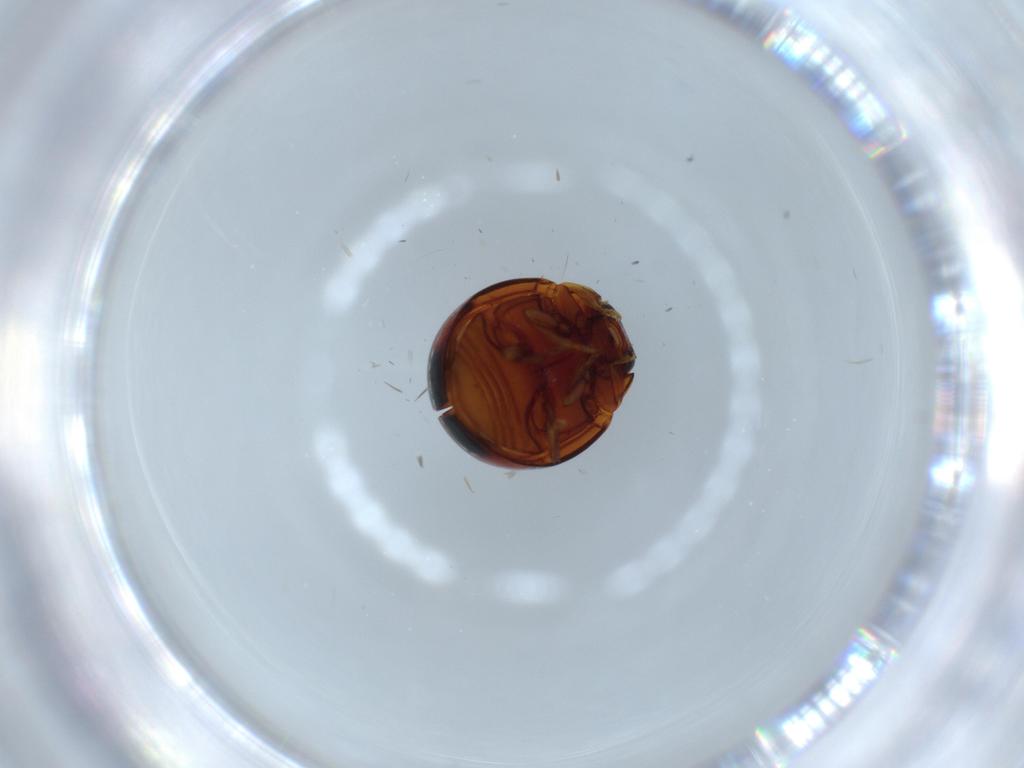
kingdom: Animalia
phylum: Arthropoda
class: Insecta
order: Coleoptera
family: Coccinellidae
